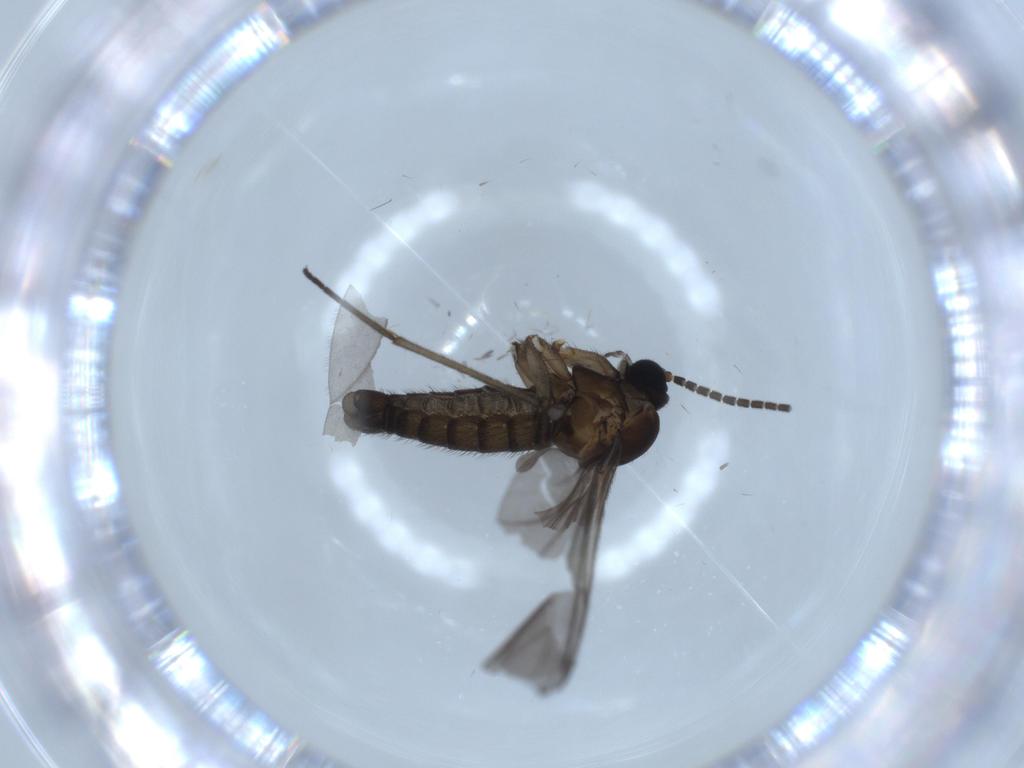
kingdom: Animalia
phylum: Arthropoda
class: Insecta
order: Diptera
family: Sciaridae
